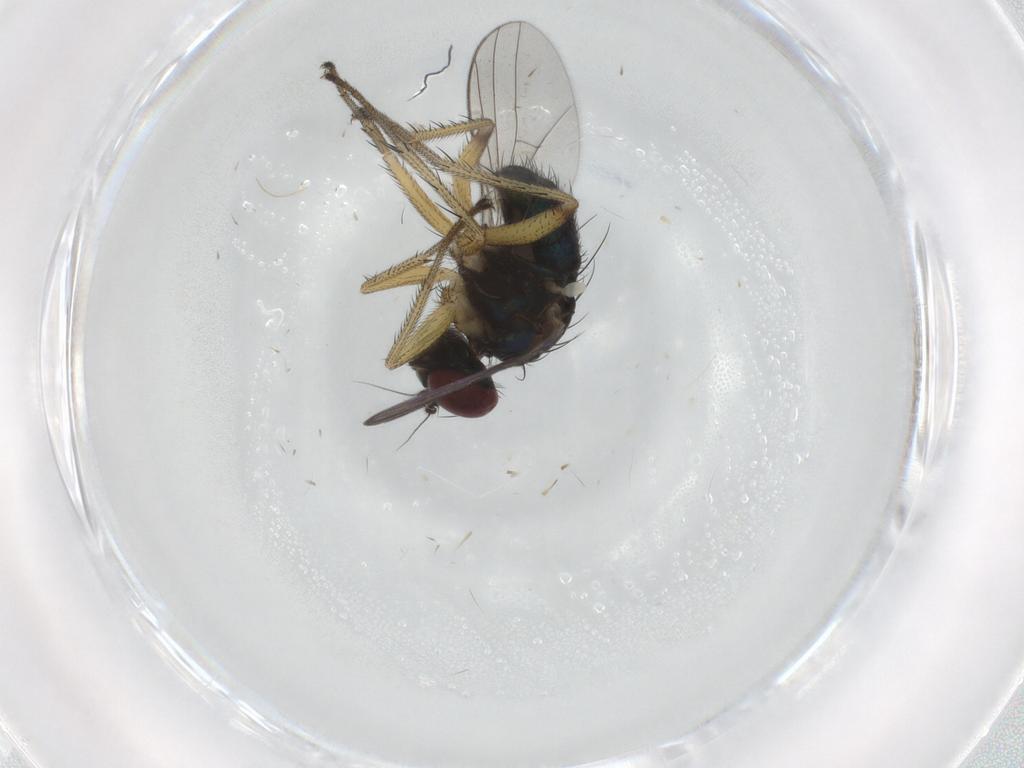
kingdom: Animalia
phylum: Arthropoda
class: Insecta
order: Diptera
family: Dolichopodidae
